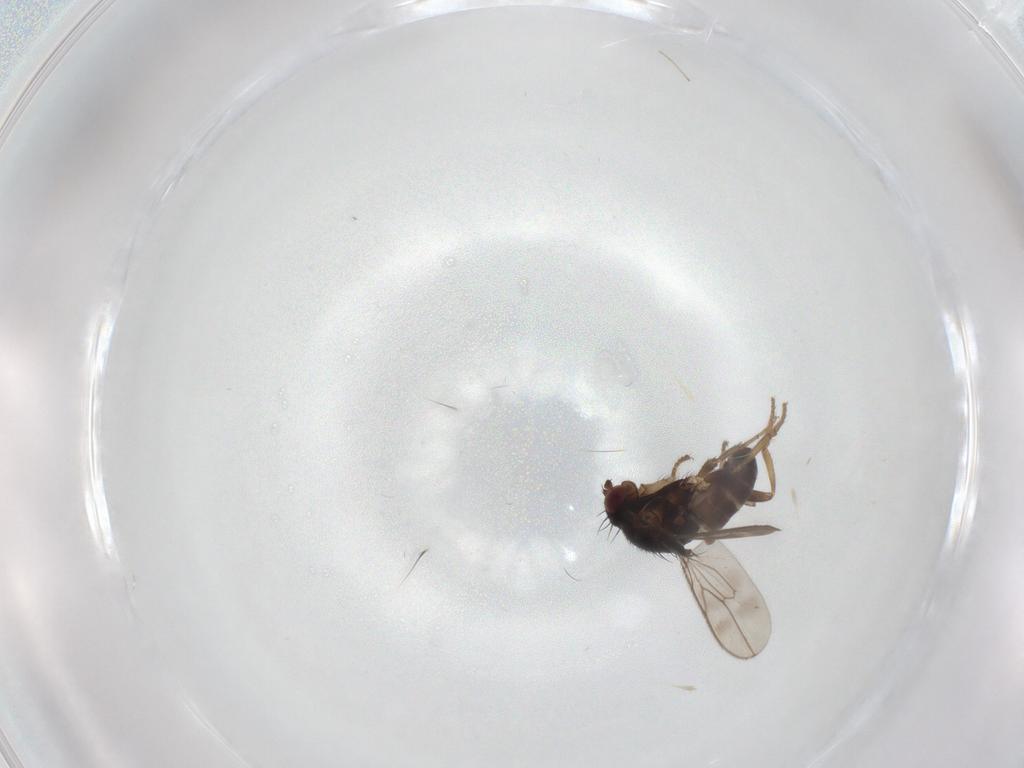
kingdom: Animalia
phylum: Arthropoda
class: Insecta
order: Diptera
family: Sphaeroceridae
